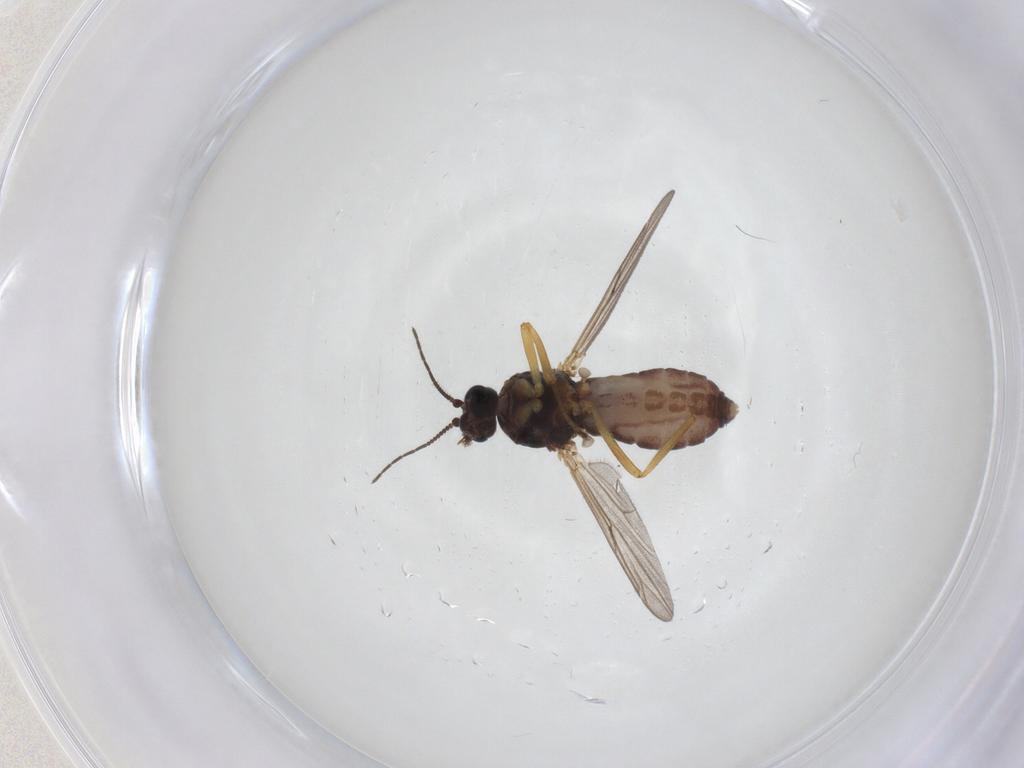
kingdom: Animalia
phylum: Arthropoda
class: Insecta
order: Diptera
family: Ceratopogonidae
